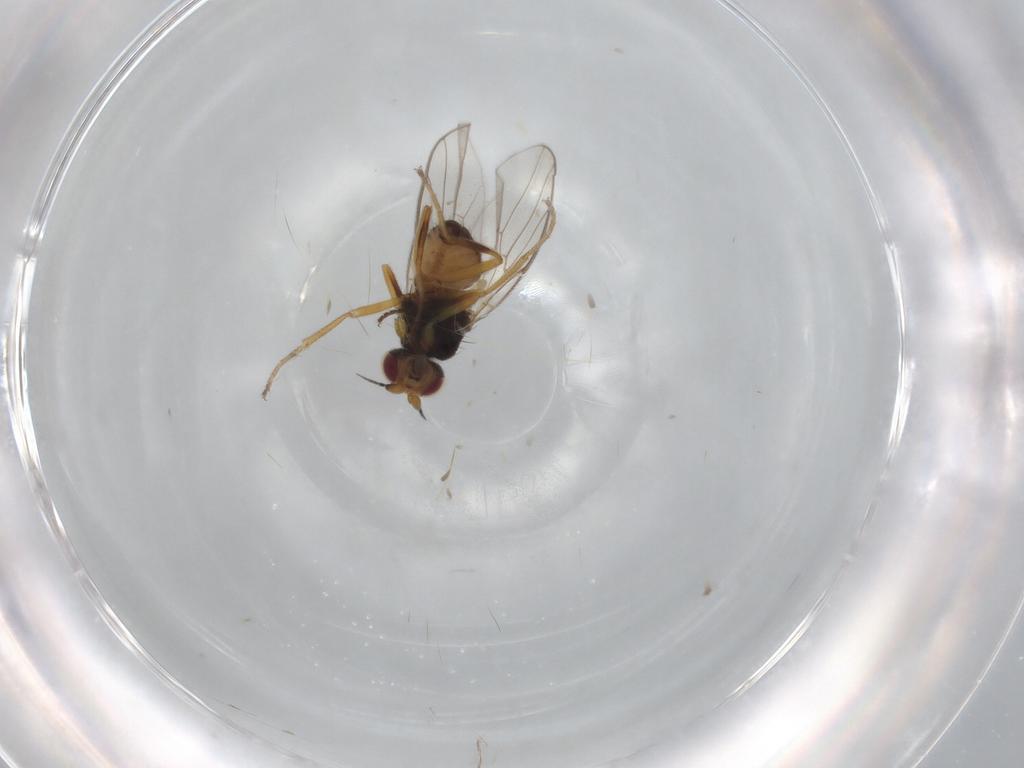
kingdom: Animalia
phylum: Arthropoda
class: Insecta
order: Diptera
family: Chloropidae
